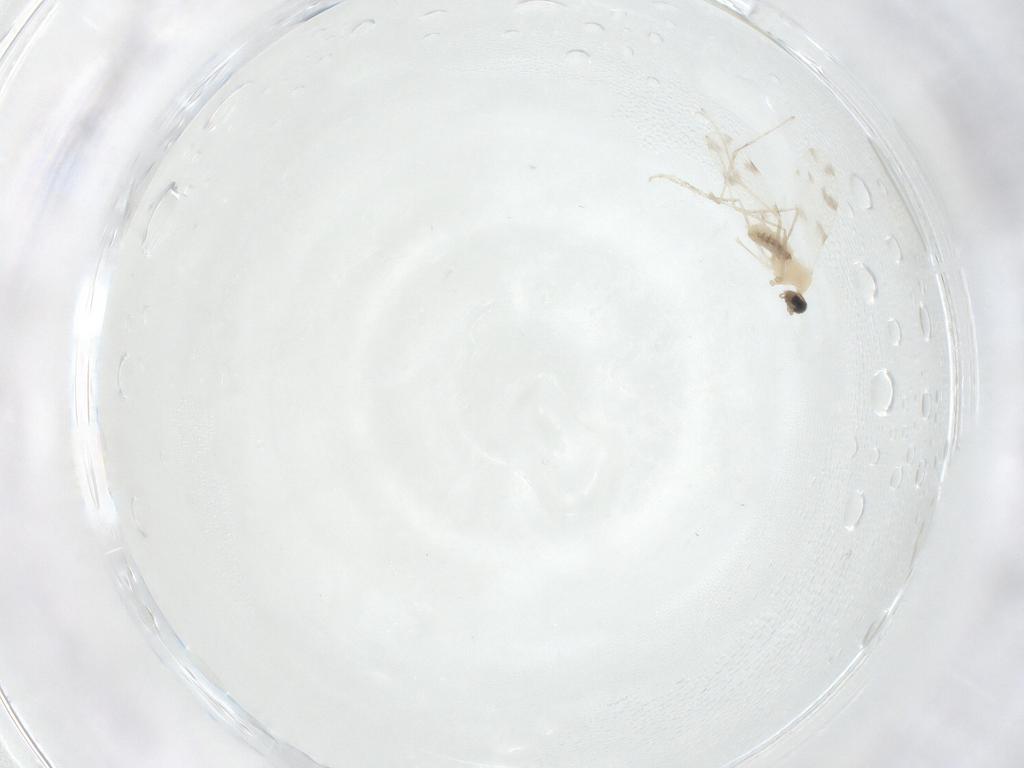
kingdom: Animalia
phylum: Arthropoda
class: Insecta
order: Diptera
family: Cecidomyiidae
